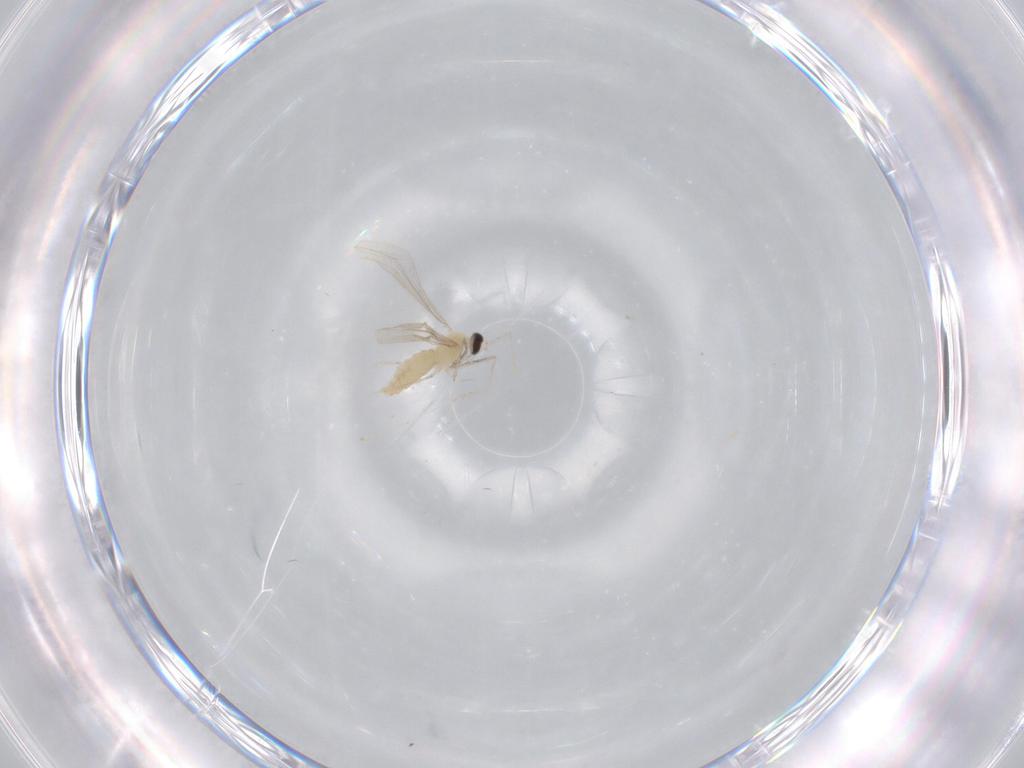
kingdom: Animalia
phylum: Arthropoda
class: Insecta
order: Diptera
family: Cecidomyiidae
